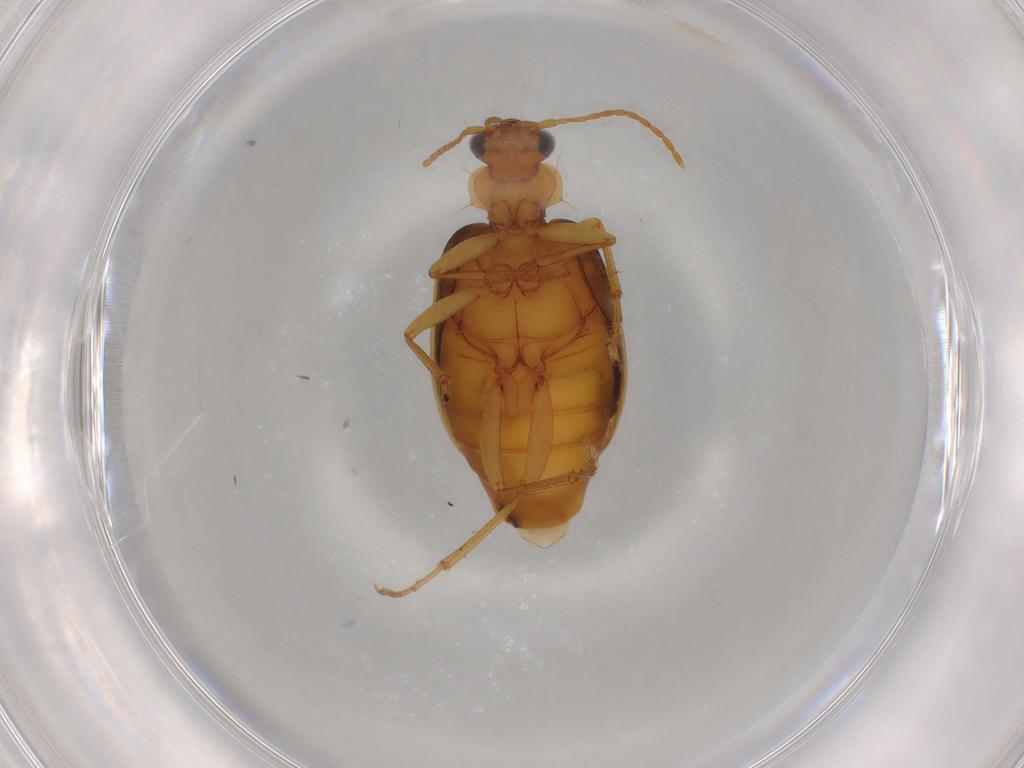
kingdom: Animalia
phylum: Arthropoda
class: Insecta
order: Coleoptera
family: Carabidae
